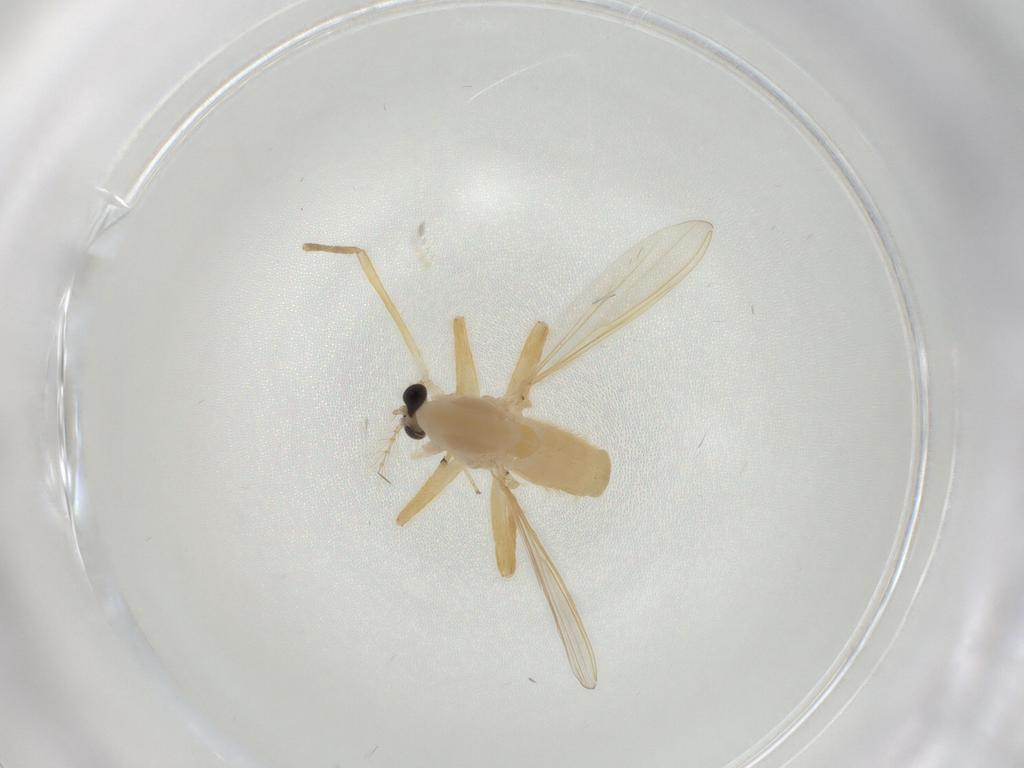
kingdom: Animalia
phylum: Arthropoda
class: Insecta
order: Diptera
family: Chironomidae
